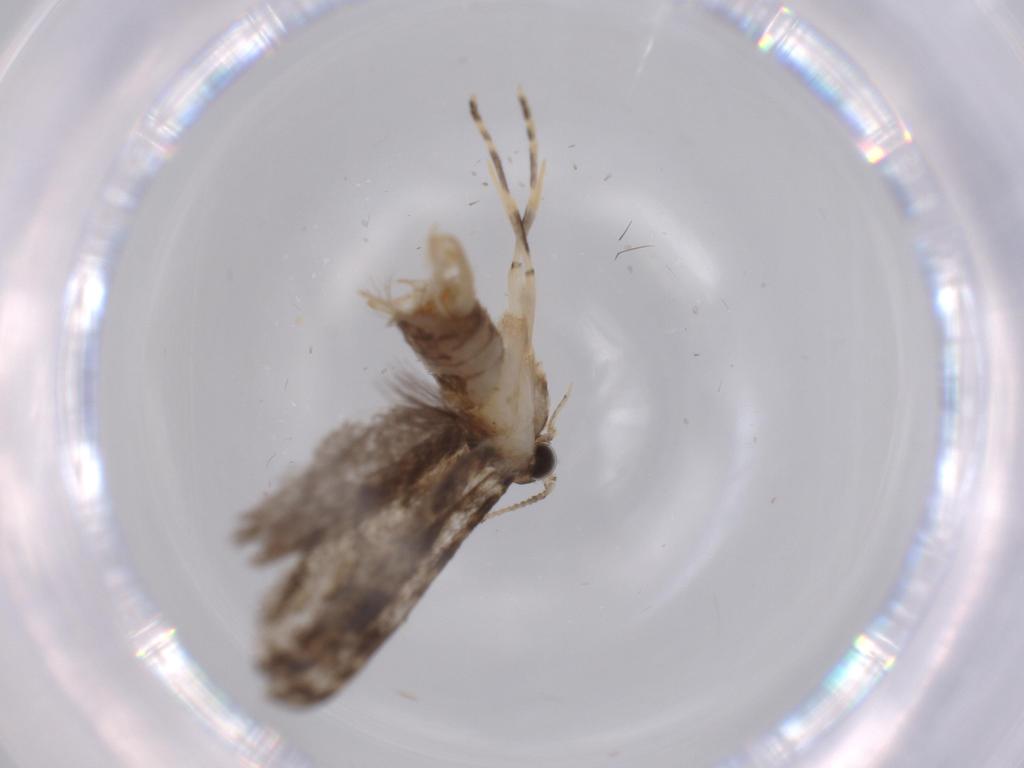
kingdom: Animalia
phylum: Arthropoda
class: Insecta
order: Lepidoptera
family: Tineidae
